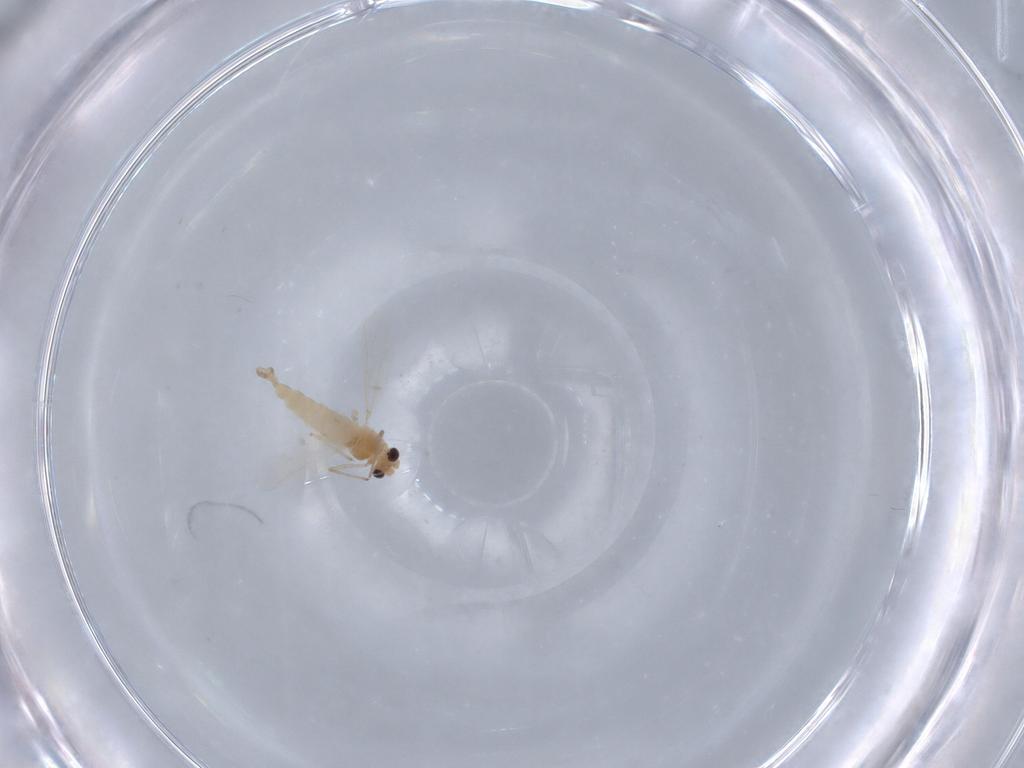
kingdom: Animalia
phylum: Arthropoda
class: Insecta
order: Diptera
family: Chironomidae
